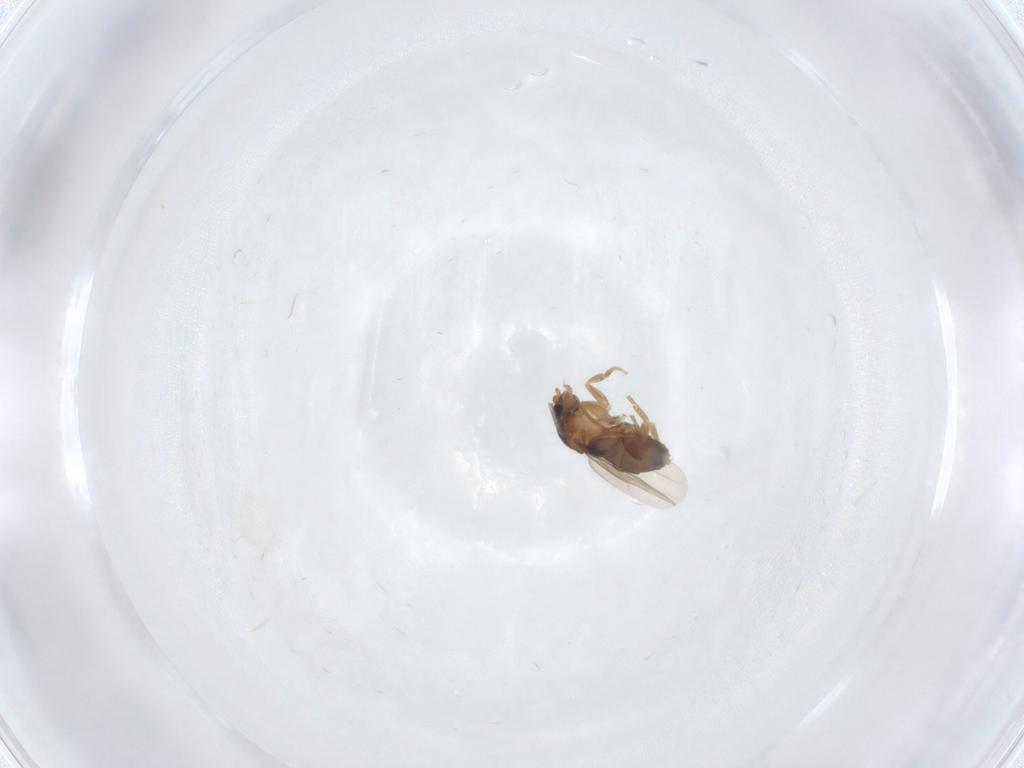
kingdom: Animalia
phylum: Arthropoda
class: Insecta
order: Diptera
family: Phoridae
